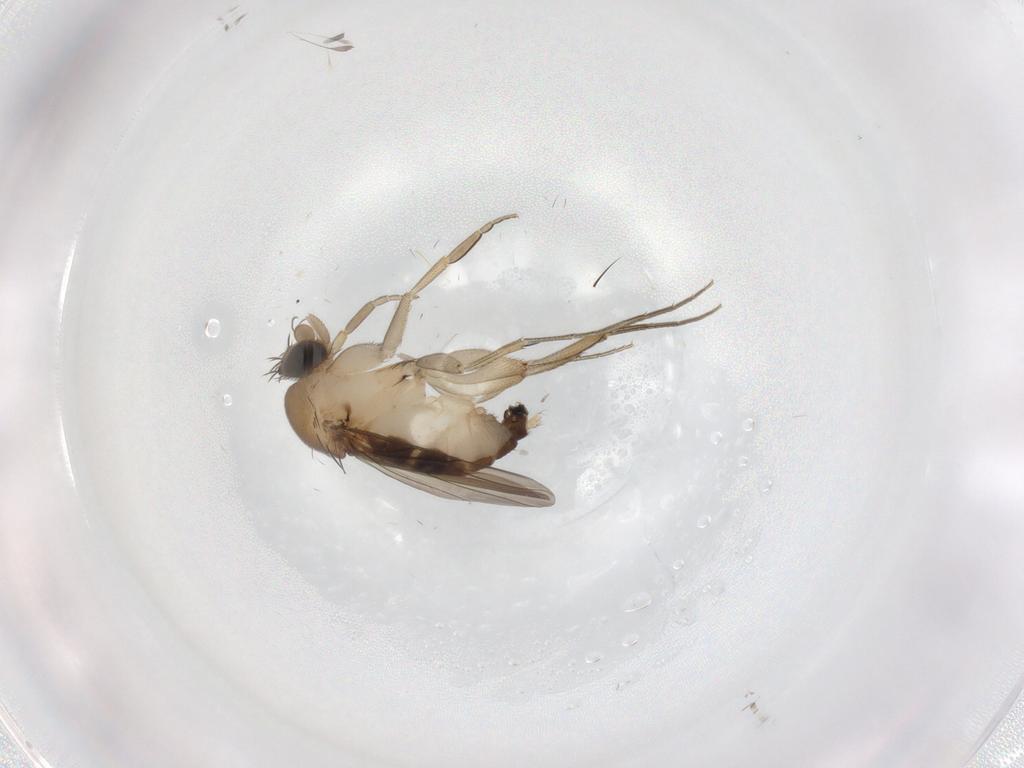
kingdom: Animalia
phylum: Arthropoda
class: Insecta
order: Diptera
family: Phoridae
